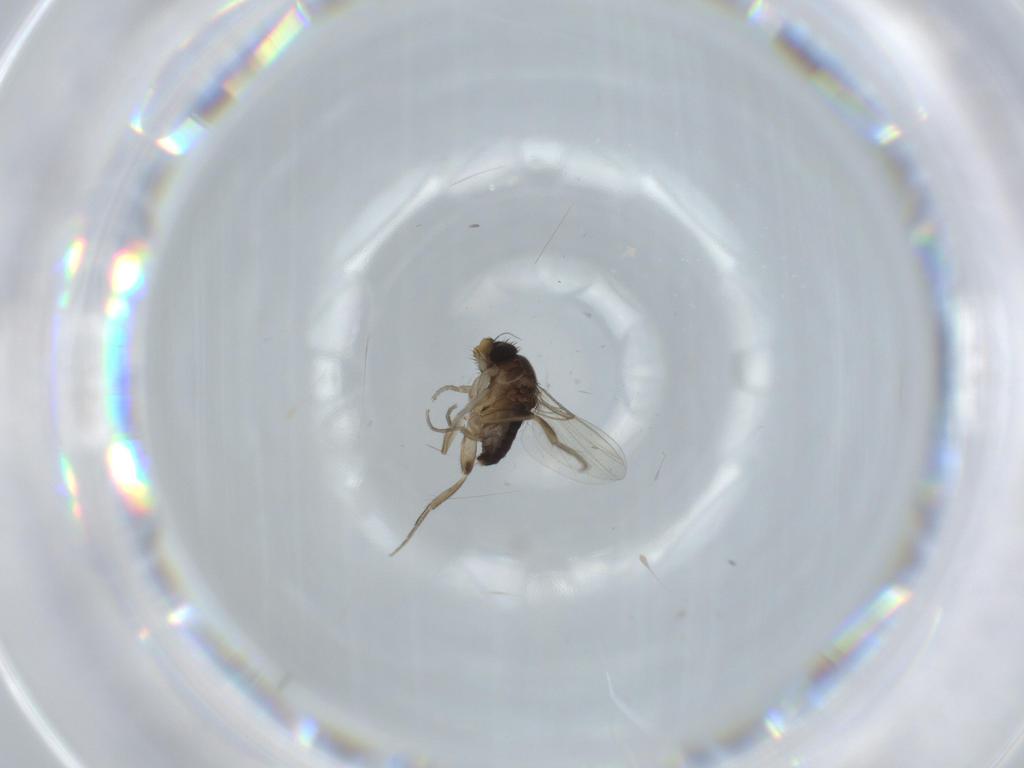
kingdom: Animalia
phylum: Arthropoda
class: Insecta
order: Diptera
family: Phoridae
